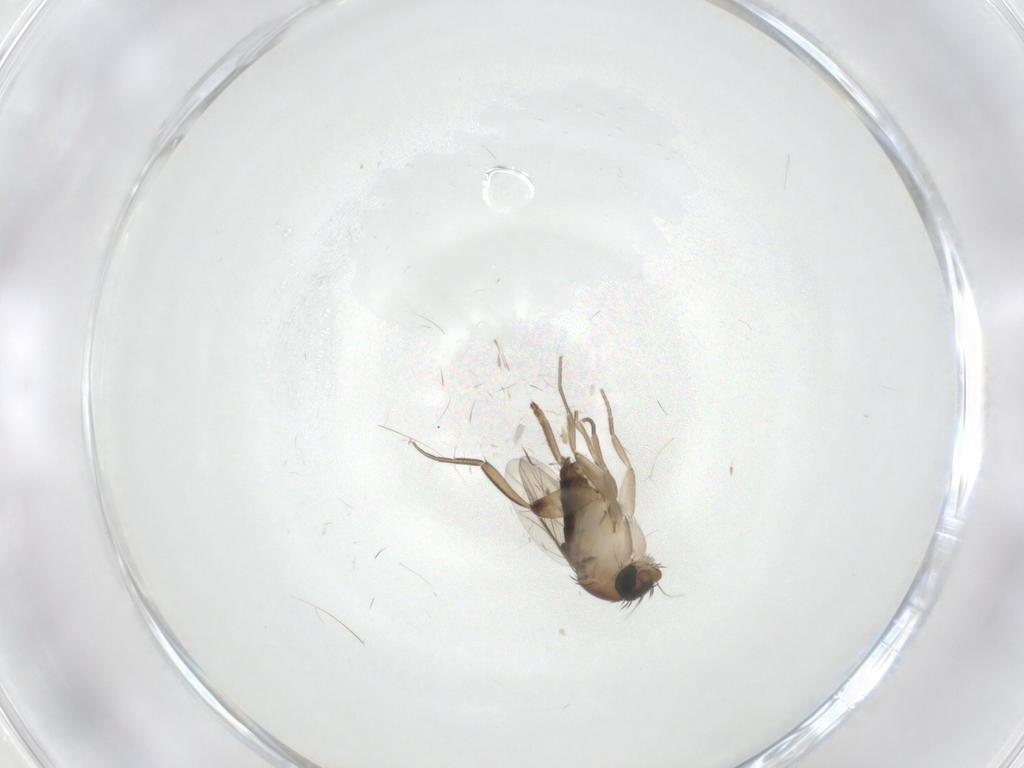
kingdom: Animalia
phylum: Arthropoda
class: Insecta
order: Diptera
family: Phoridae
